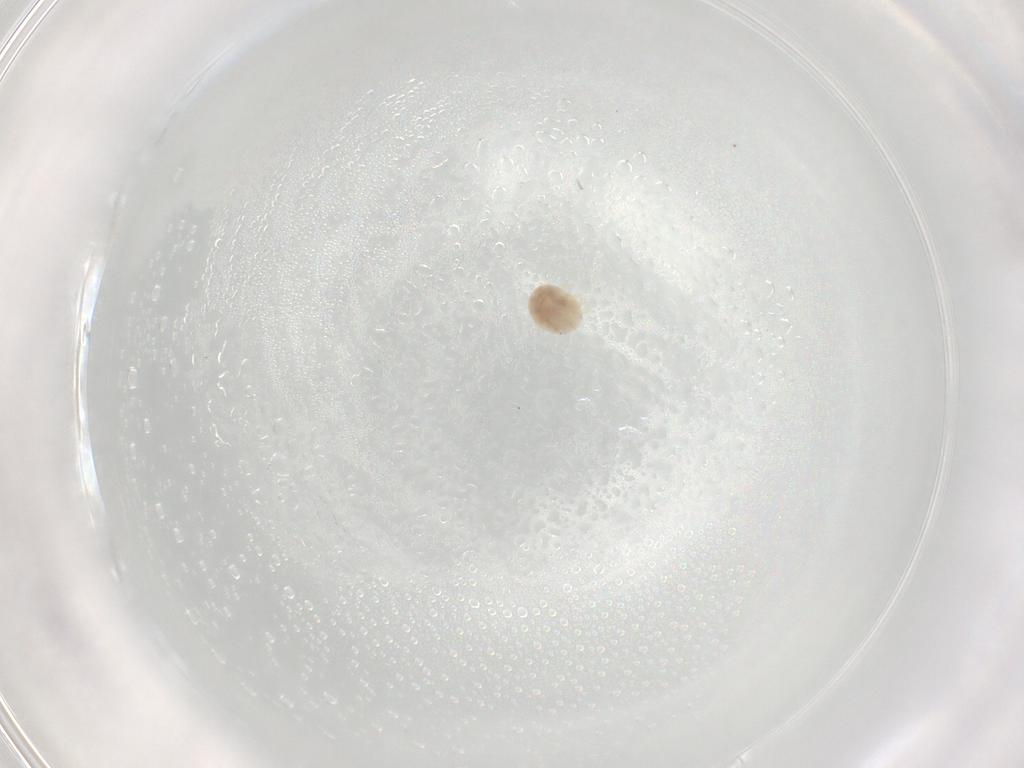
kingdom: Animalia
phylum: Arthropoda
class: Arachnida
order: Trombidiformes
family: Hydryphantidae
